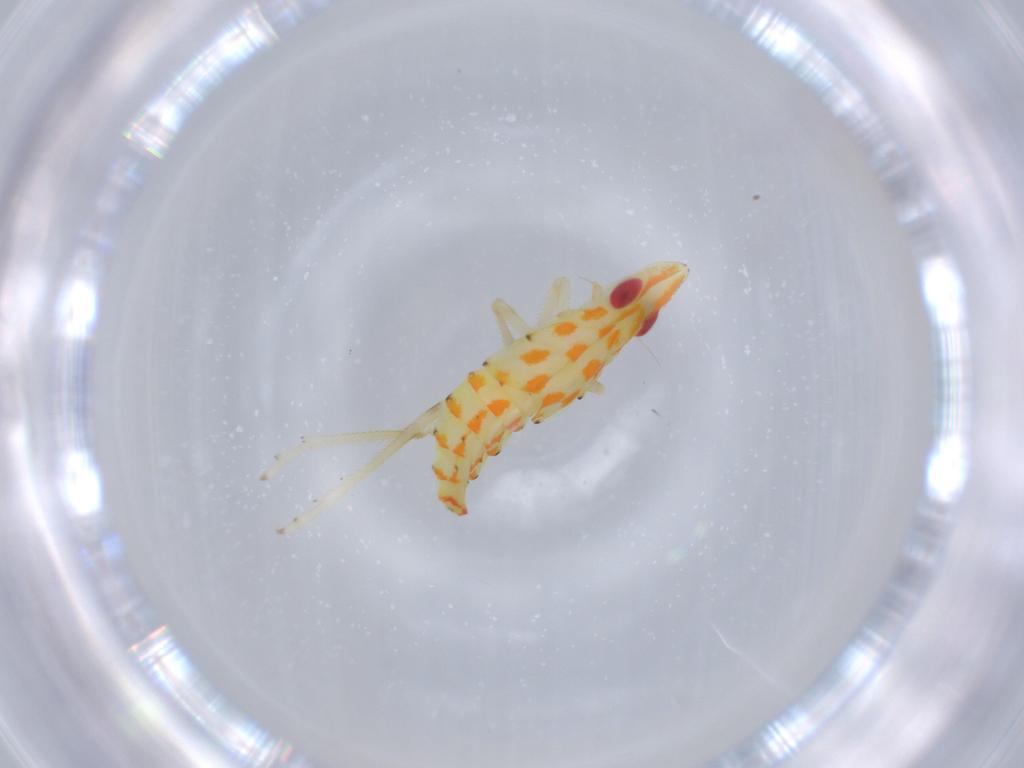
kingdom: Animalia
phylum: Arthropoda
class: Insecta
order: Hemiptera
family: Tropiduchidae
